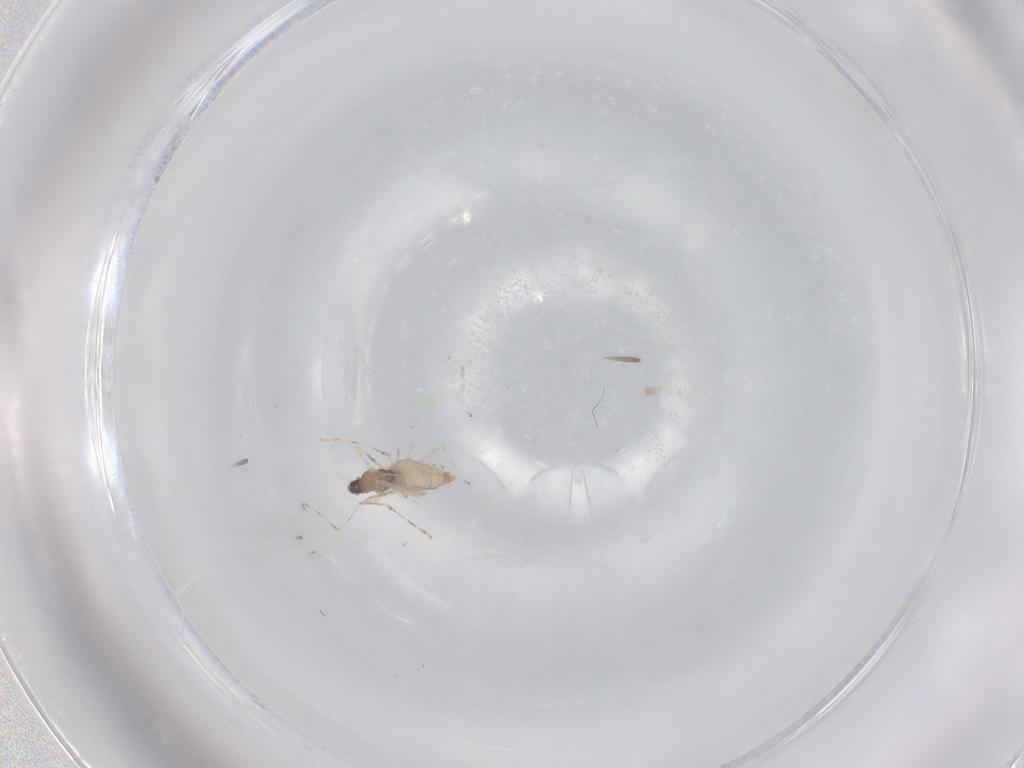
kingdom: Animalia
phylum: Arthropoda
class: Insecta
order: Diptera
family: Cecidomyiidae
